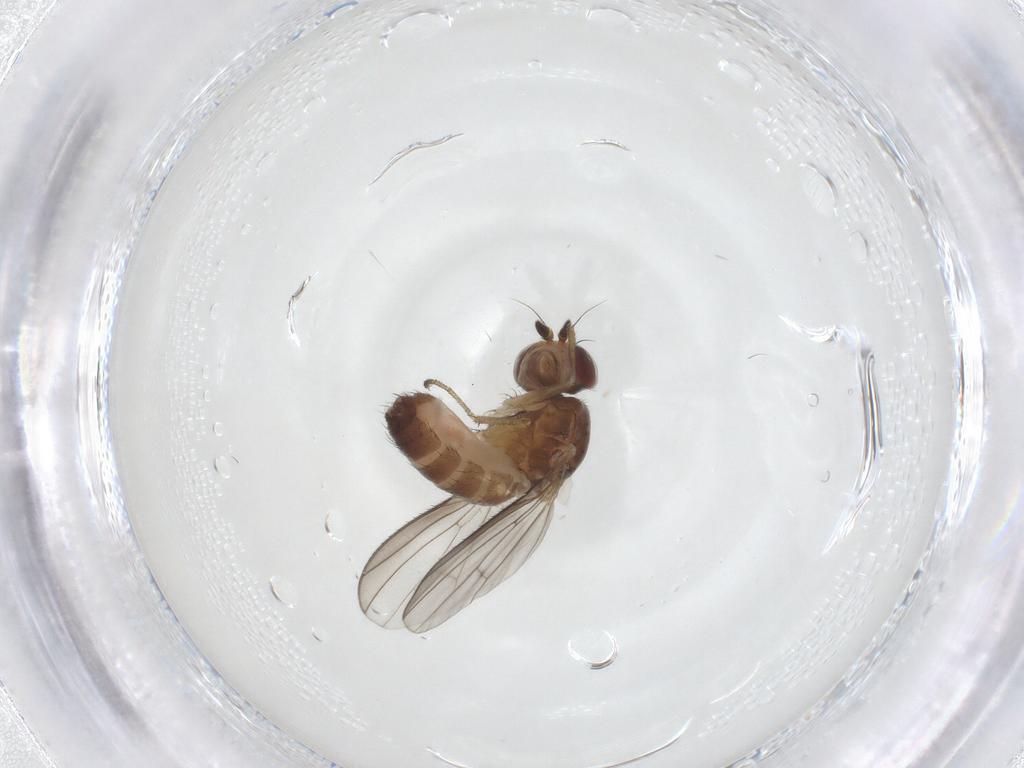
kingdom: Animalia
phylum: Arthropoda
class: Insecta
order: Diptera
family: Heleomyzidae
